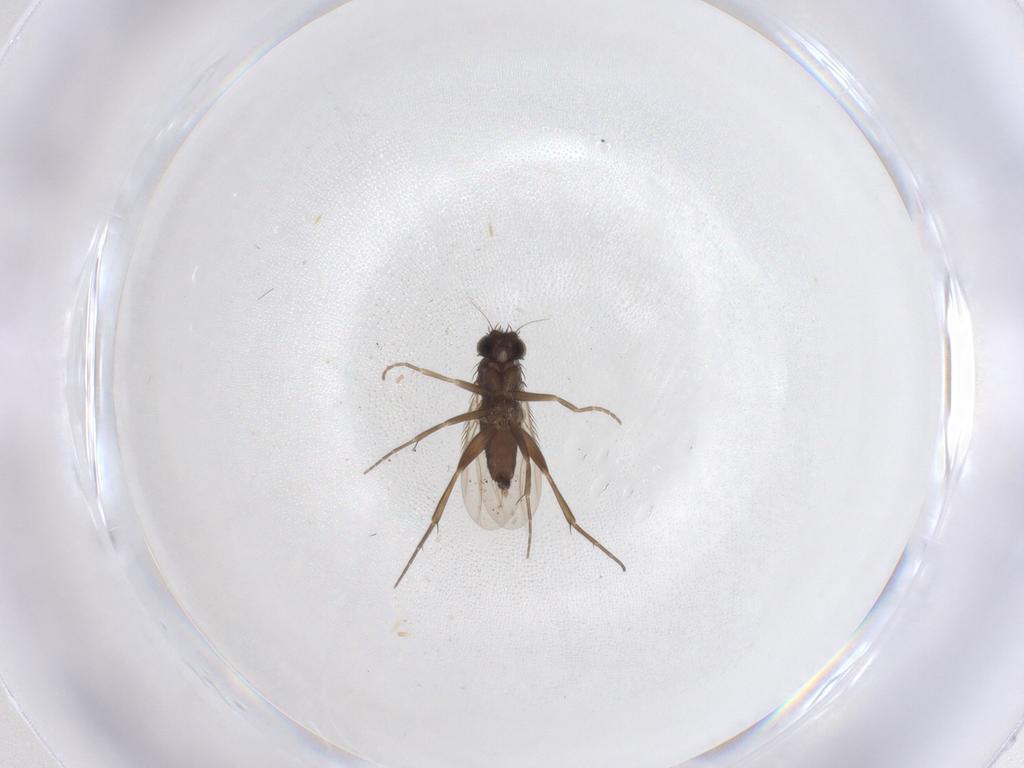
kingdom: Animalia
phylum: Arthropoda
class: Insecta
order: Diptera
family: Phoridae
